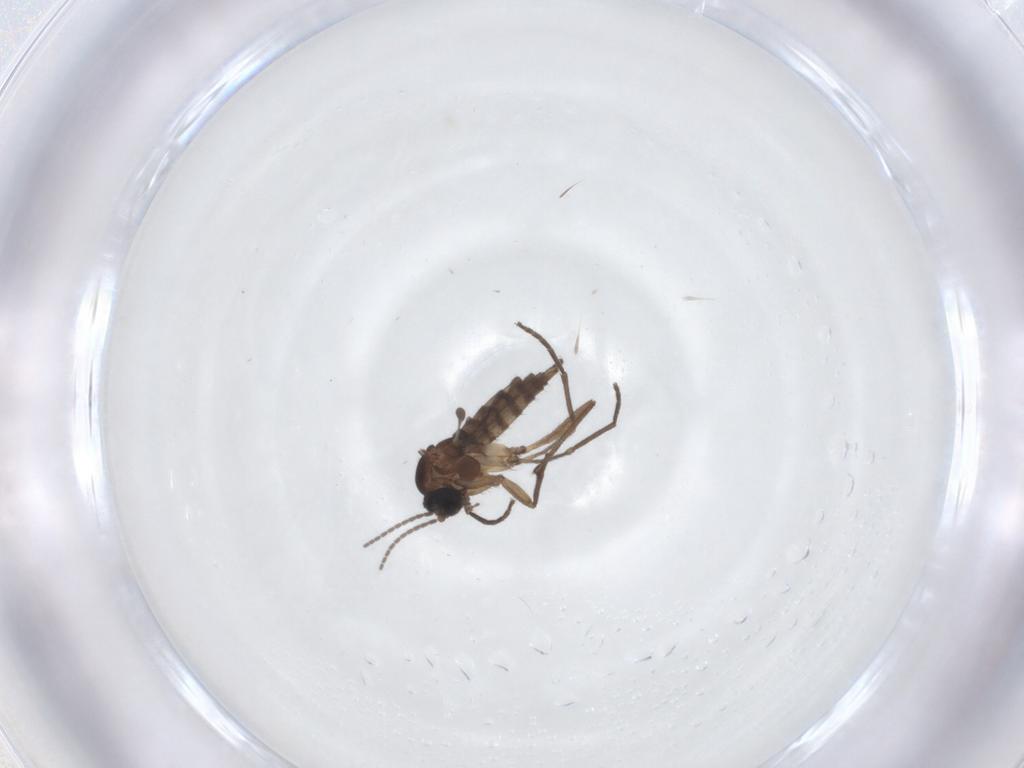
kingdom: Animalia
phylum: Arthropoda
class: Insecta
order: Diptera
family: Sciaridae
